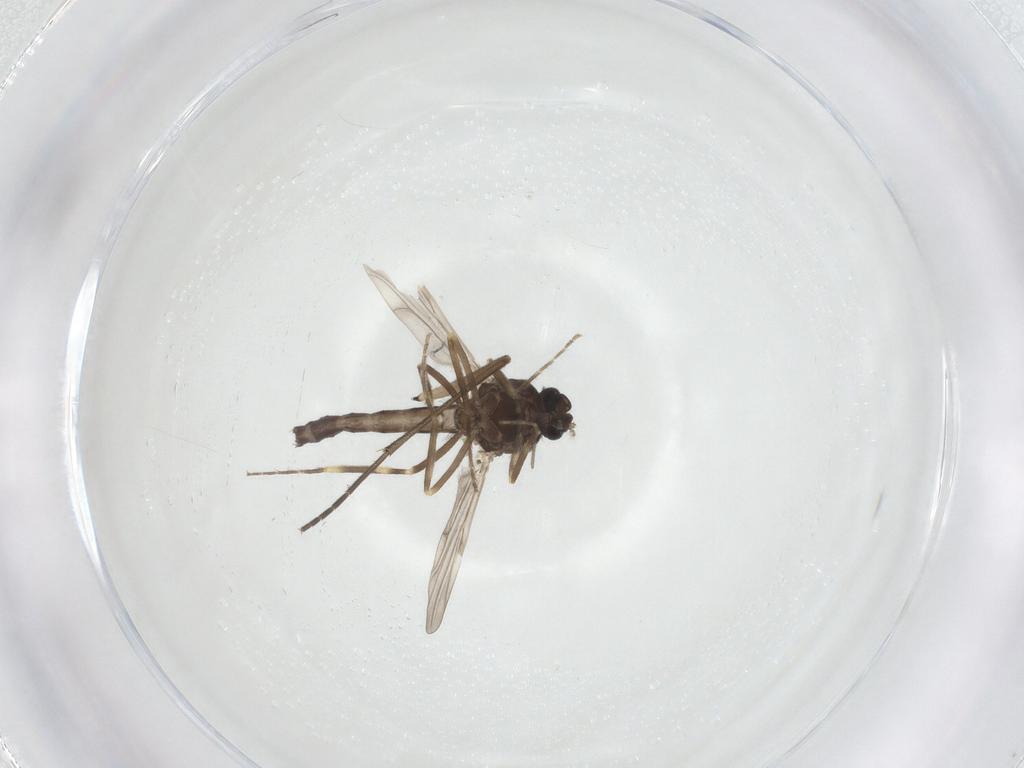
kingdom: Animalia
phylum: Arthropoda
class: Insecta
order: Diptera
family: Ceratopogonidae
